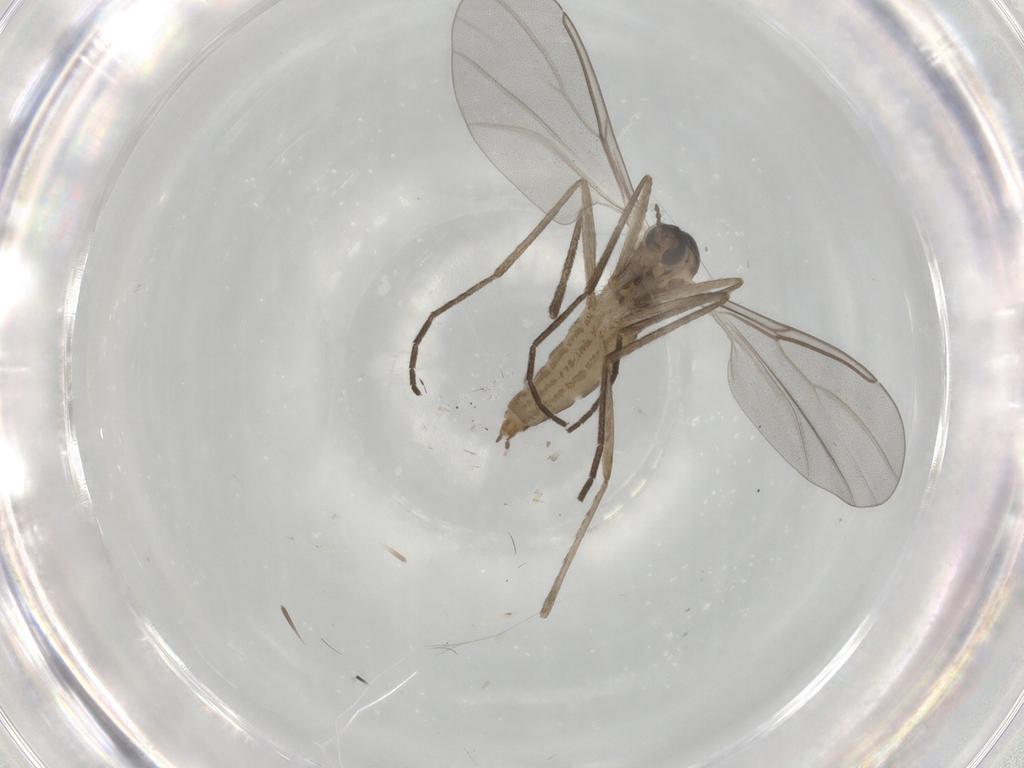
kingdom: Animalia
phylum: Arthropoda
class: Insecta
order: Diptera
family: Cecidomyiidae
